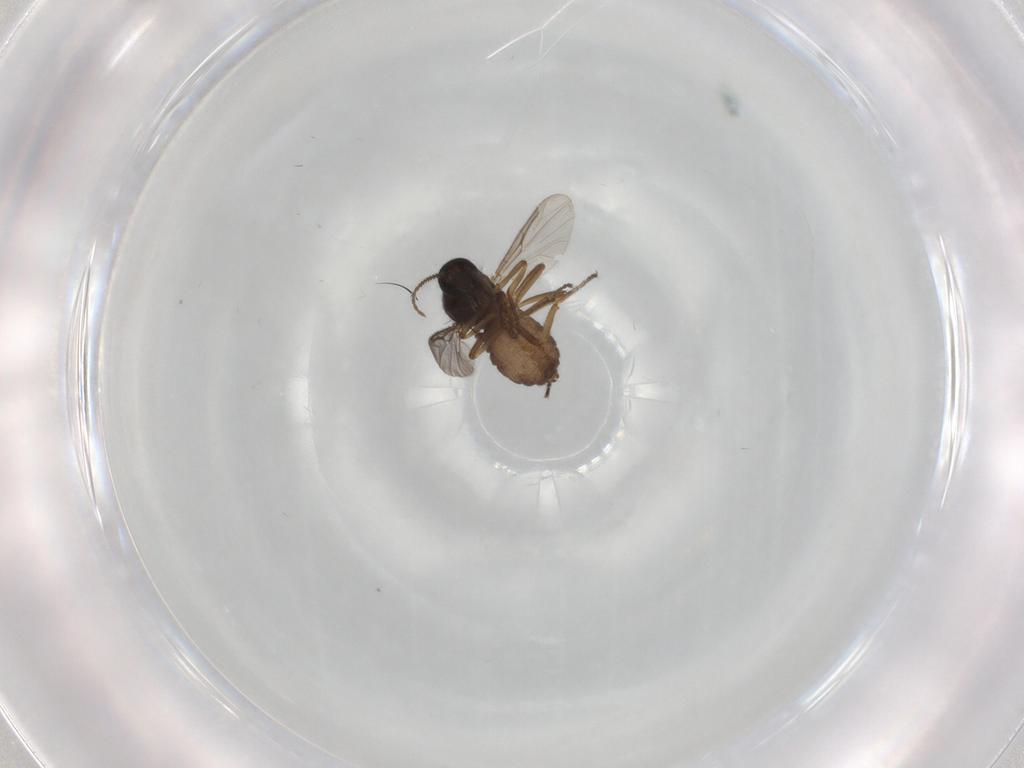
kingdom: Animalia
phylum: Arthropoda
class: Insecta
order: Diptera
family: Ceratopogonidae
